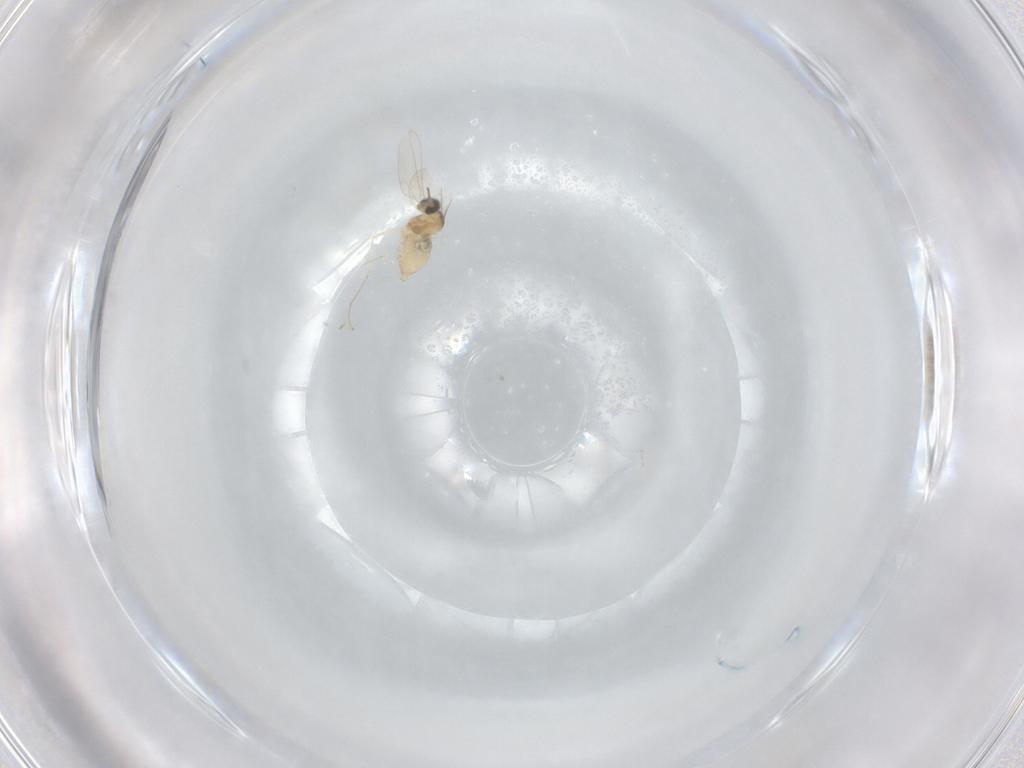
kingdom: Animalia
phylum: Arthropoda
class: Insecta
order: Diptera
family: Cecidomyiidae
